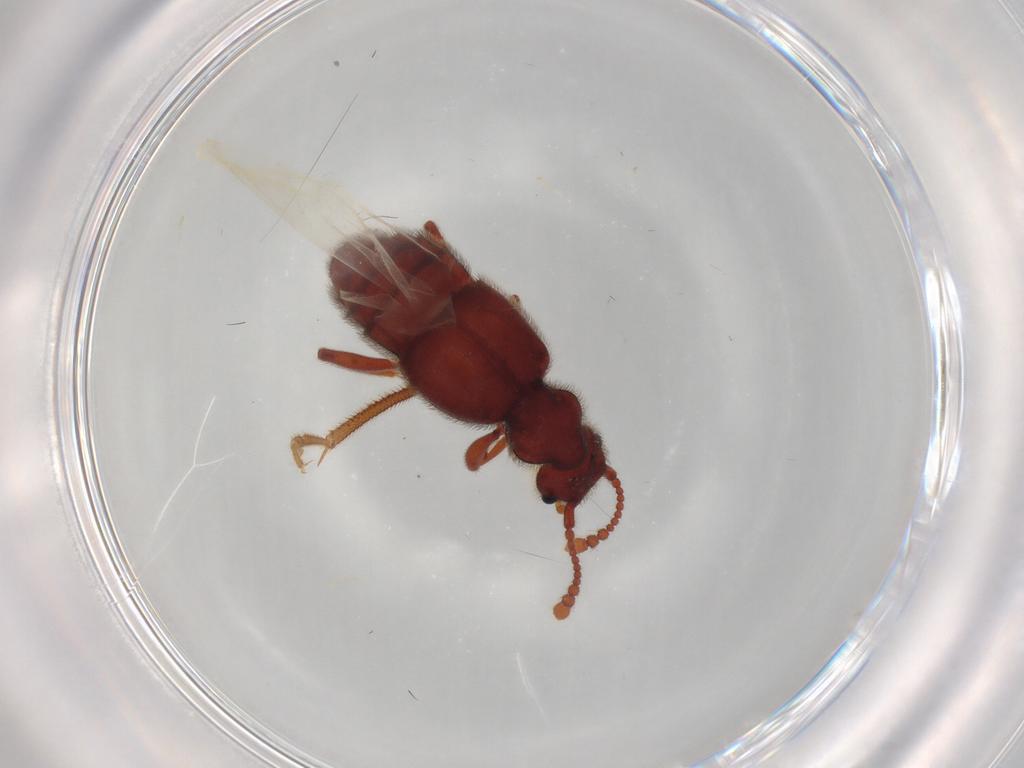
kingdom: Animalia
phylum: Arthropoda
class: Insecta
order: Coleoptera
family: Staphylinidae
